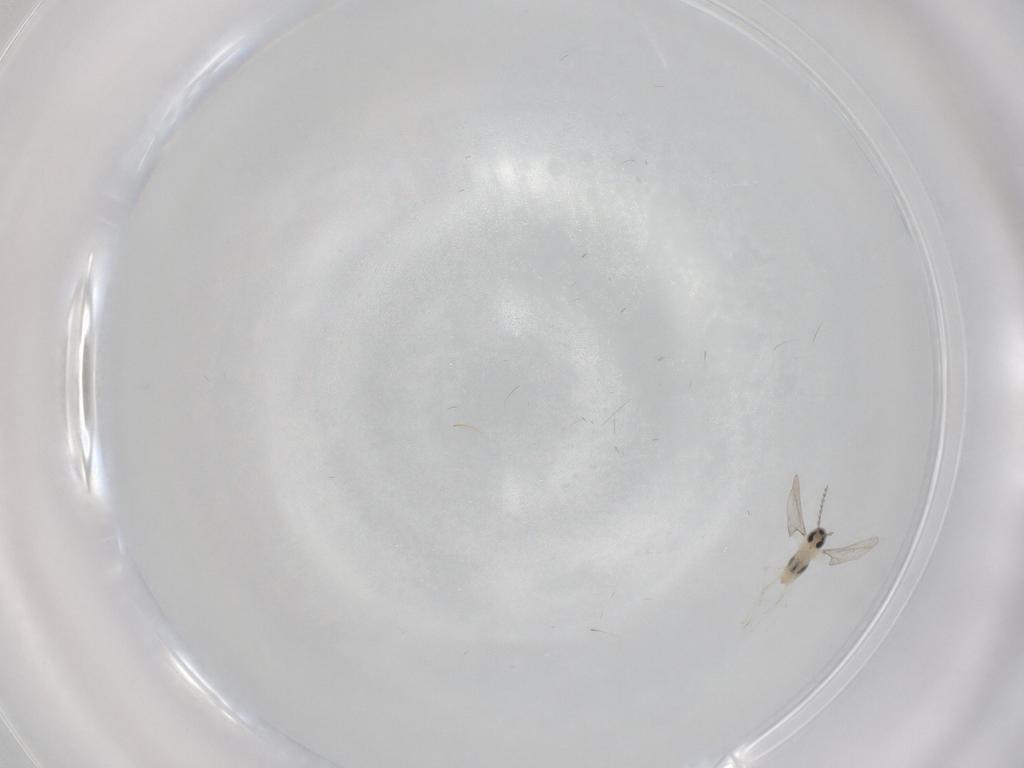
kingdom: Animalia
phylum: Arthropoda
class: Insecta
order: Diptera
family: Cecidomyiidae
